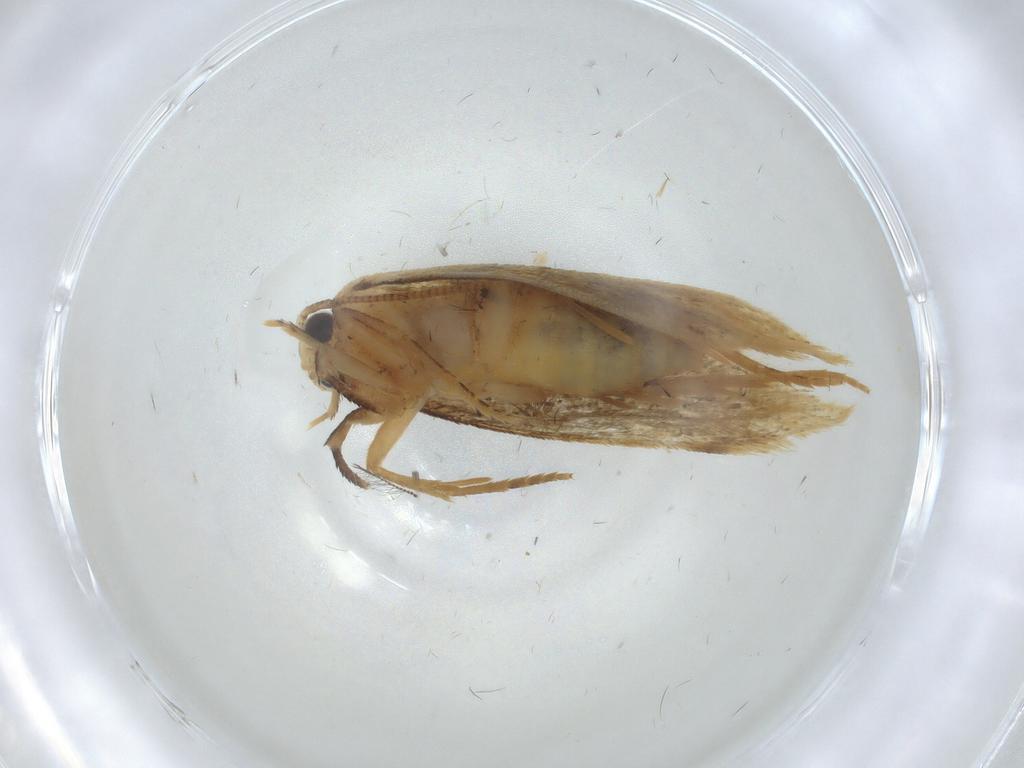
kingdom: Animalia
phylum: Arthropoda
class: Insecta
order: Lepidoptera
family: Tineidae
